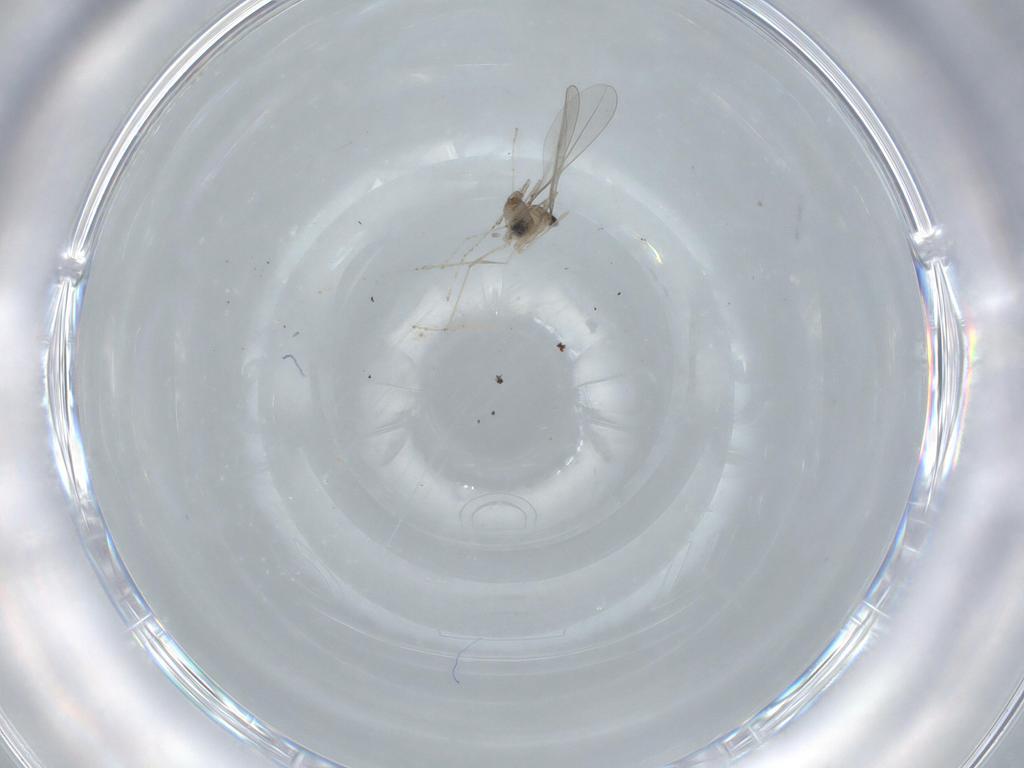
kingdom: Animalia
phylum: Arthropoda
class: Insecta
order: Diptera
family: Cecidomyiidae
